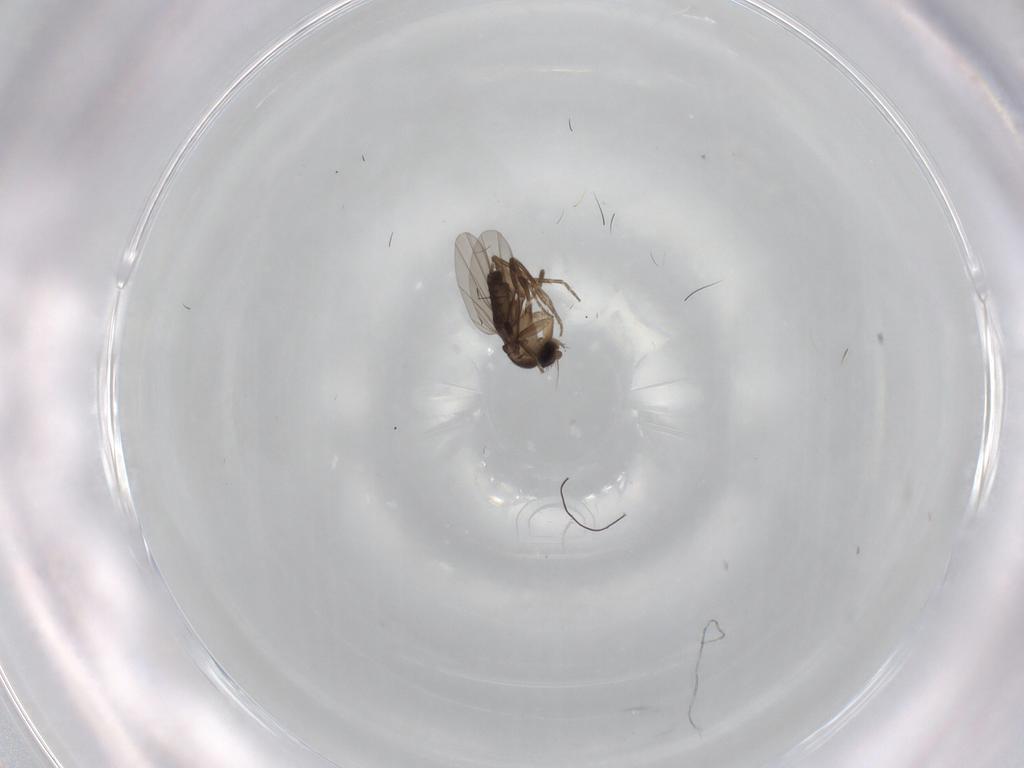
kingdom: Animalia
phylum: Arthropoda
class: Insecta
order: Diptera
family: Phoridae
